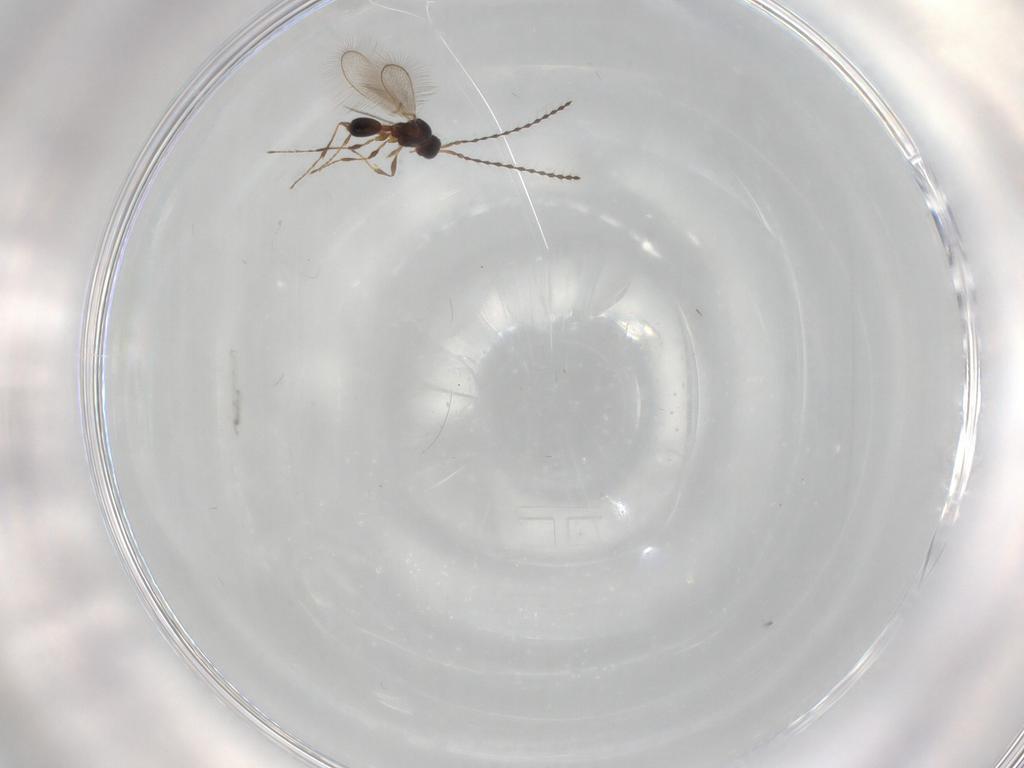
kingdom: Animalia
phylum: Arthropoda
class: Insecta
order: Hymenoptera
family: Diapriidae
